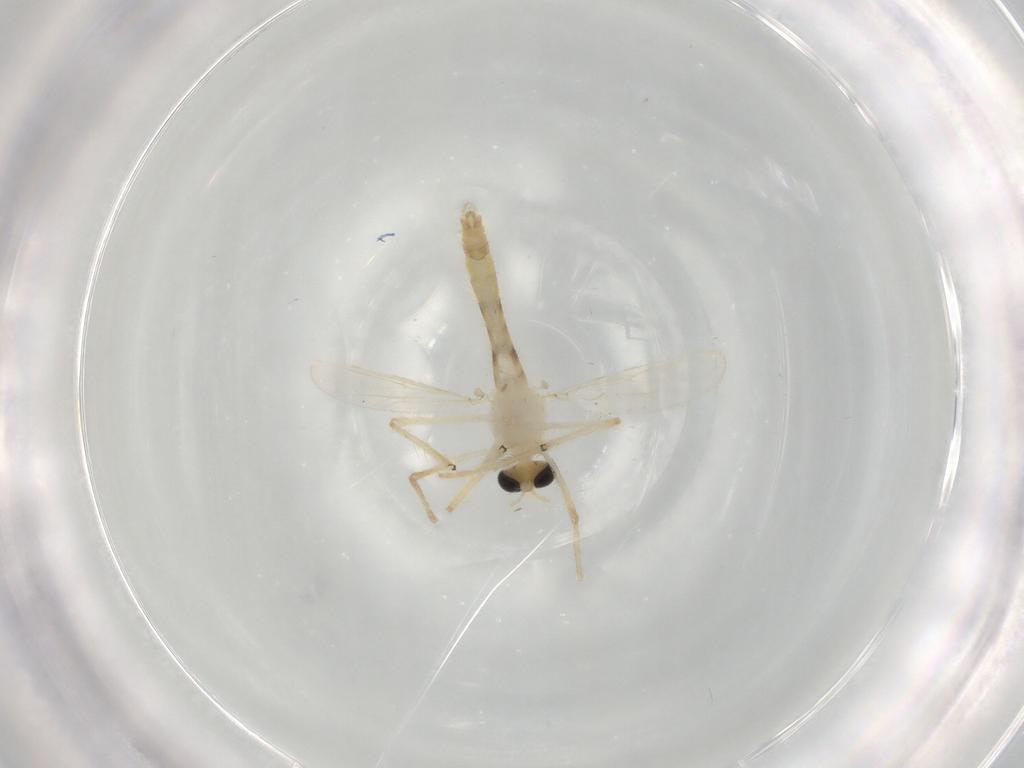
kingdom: Animalia
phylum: Arthropoda
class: Insecta
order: Diptera
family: Chironomidae
